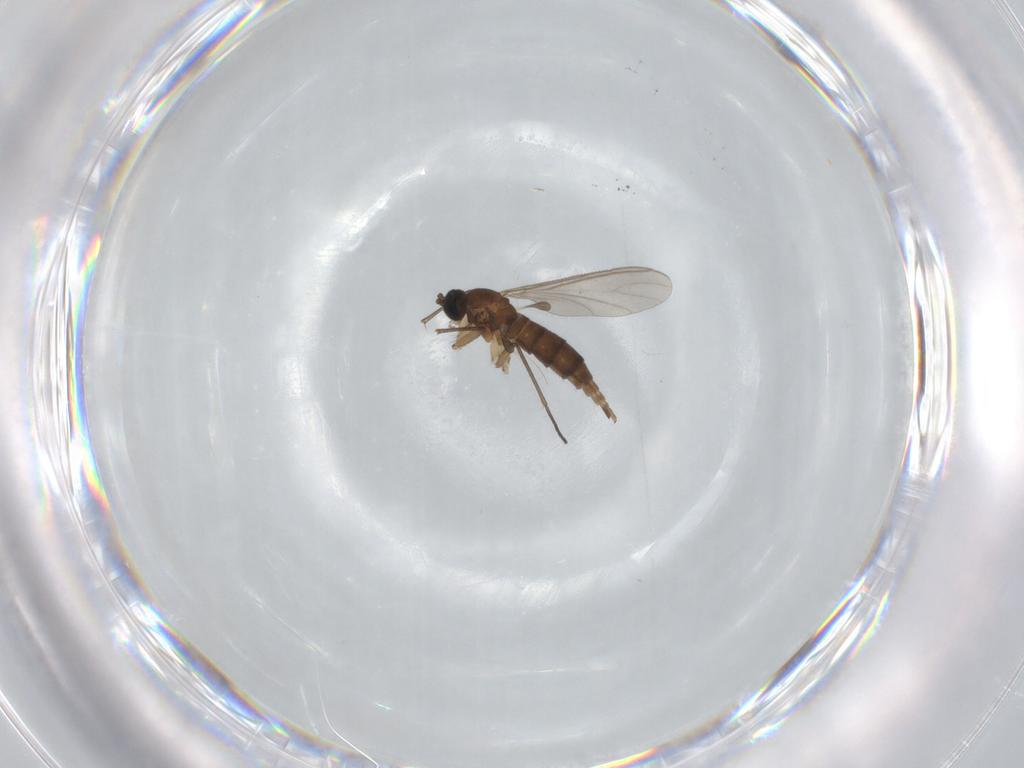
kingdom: Animalia
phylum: Arthropoda
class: Insecta
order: Diptera
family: Sciaridae
